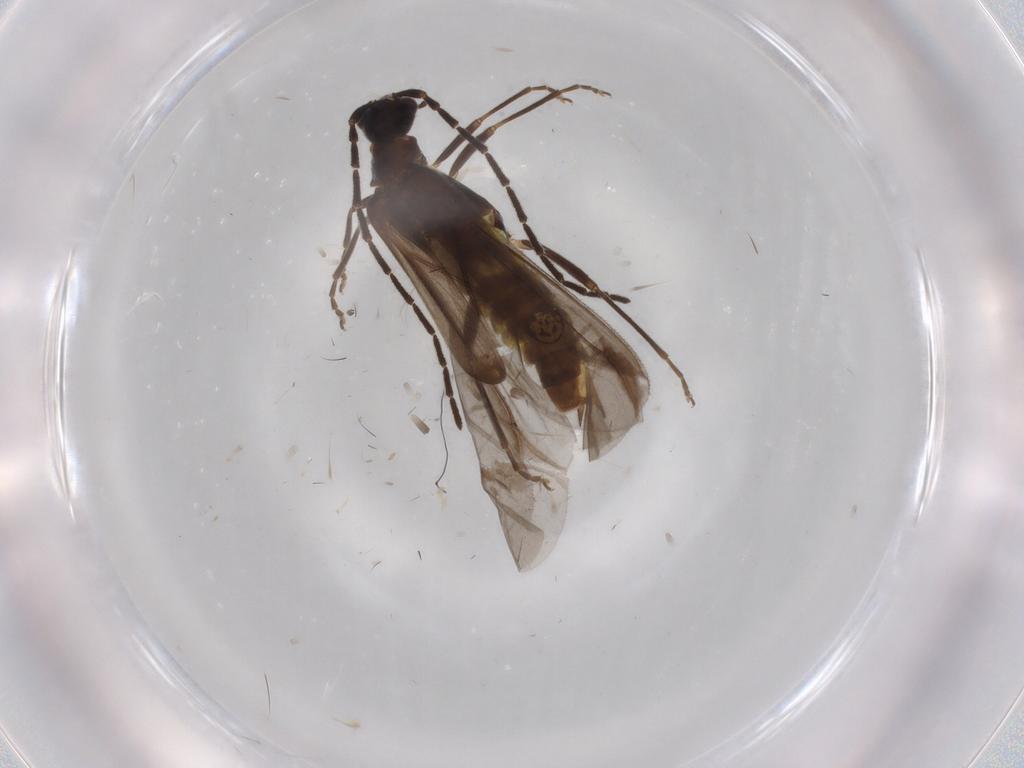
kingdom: Animalia
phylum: Arthropoda
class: Insecta
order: Coleoptera
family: Cantharidae
